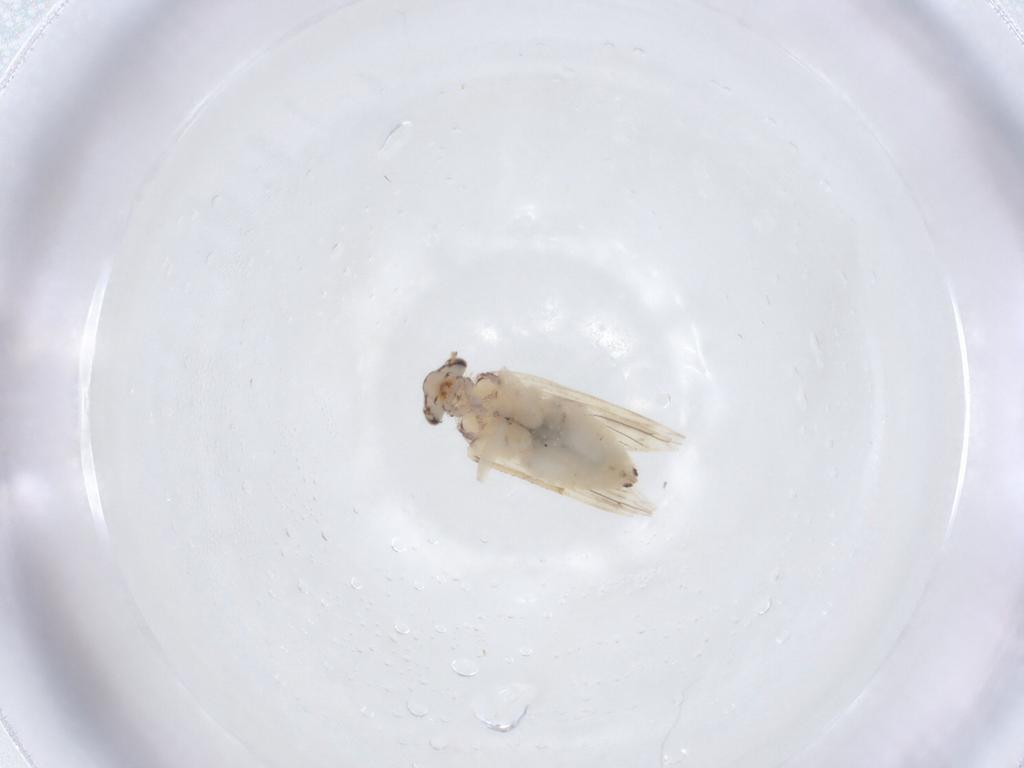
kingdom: Animalia
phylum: Arthropoda
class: Insecta
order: Psocodea
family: Lepidopsocidae
